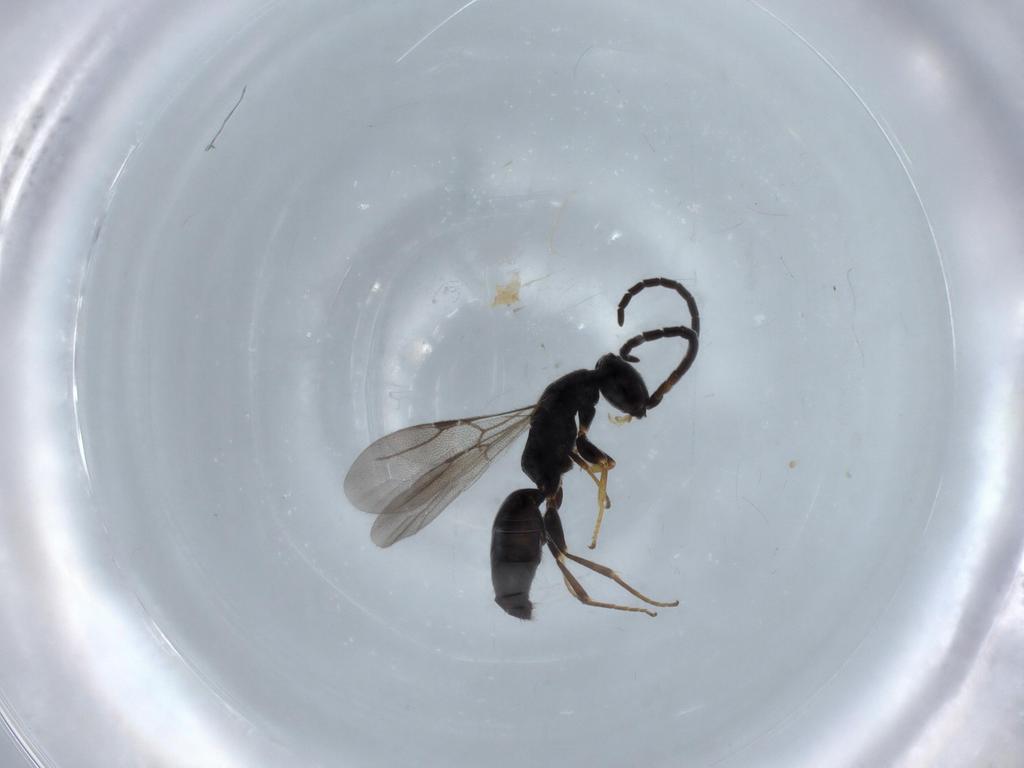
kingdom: Animalia
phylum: Arthropoda
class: Insecta
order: Hymenoptera
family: Bethylidae
